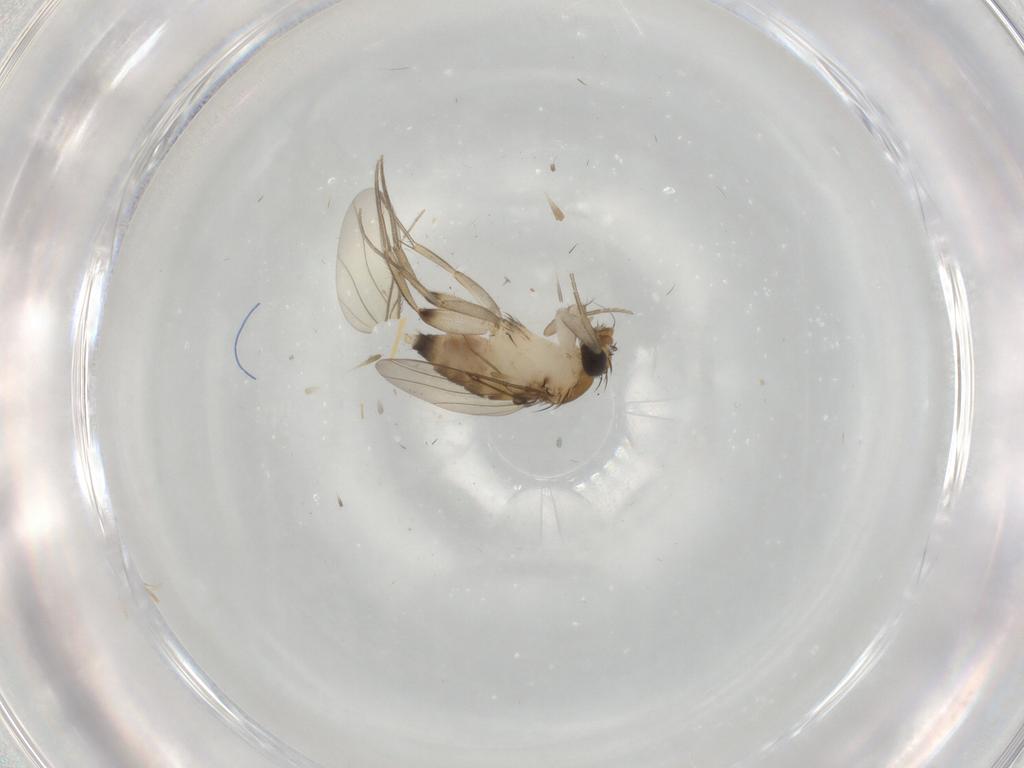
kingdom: Animalia
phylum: Arthropoda
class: Insecta
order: Diptera
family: Phoridae
